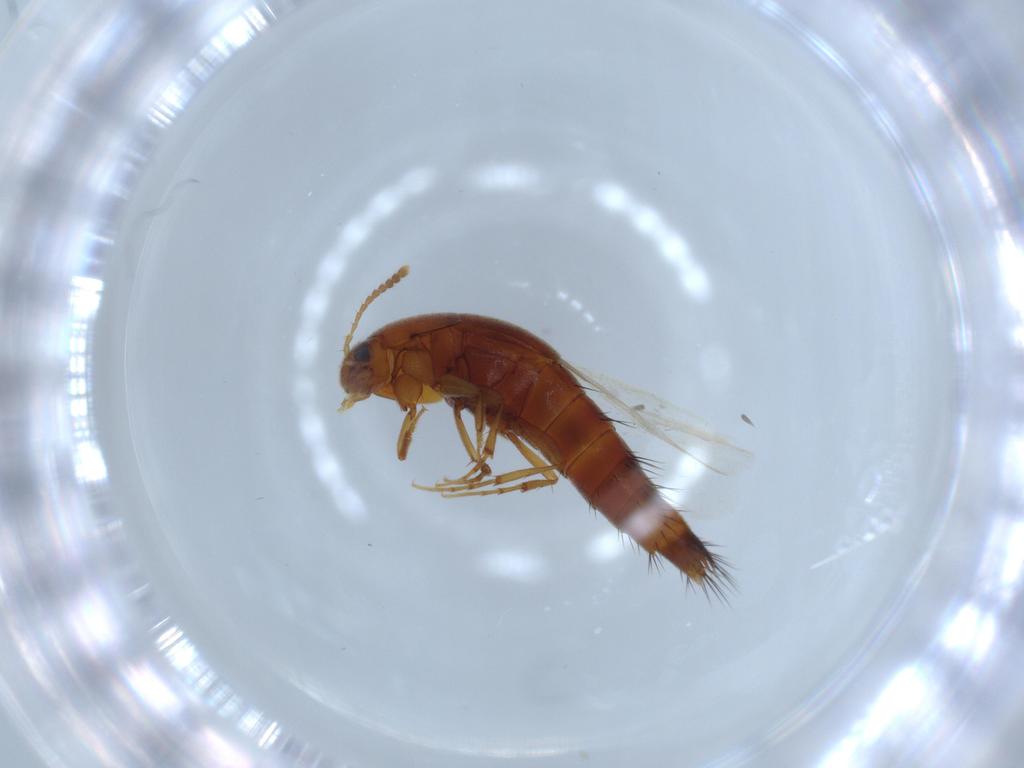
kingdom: Animalia
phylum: Arthropoda
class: Insecta
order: Coleoptera
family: Staphylinidae
